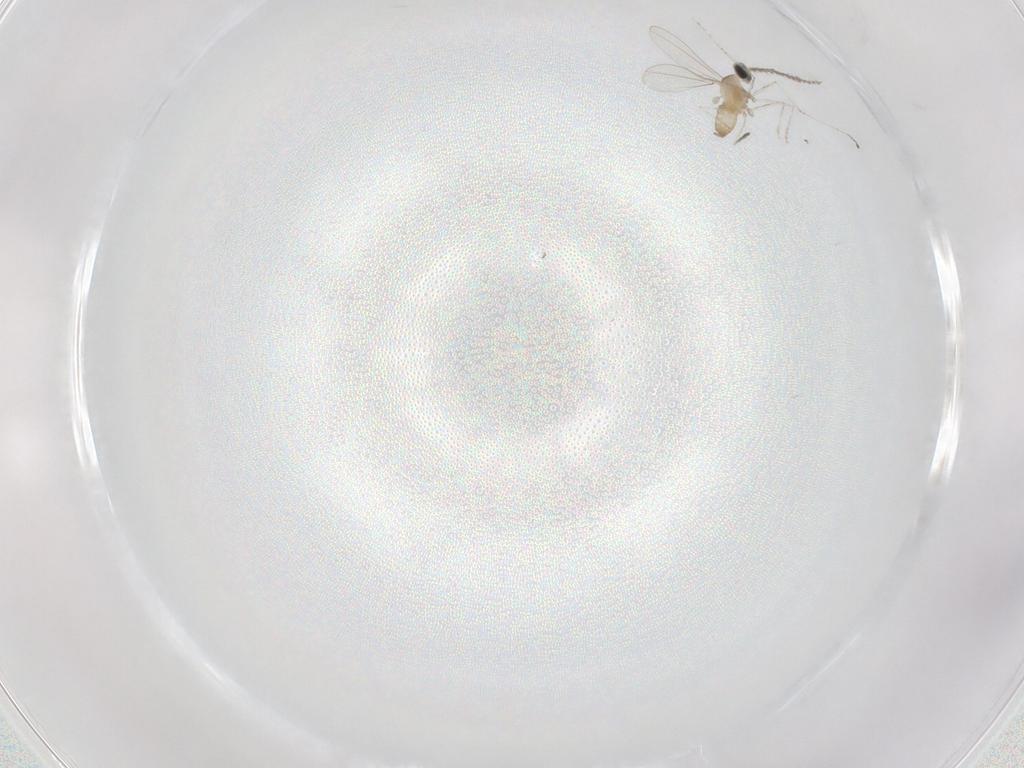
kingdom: Animalia
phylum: Arthropoda
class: Insecta
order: Diptera
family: Cecidomyiidae
